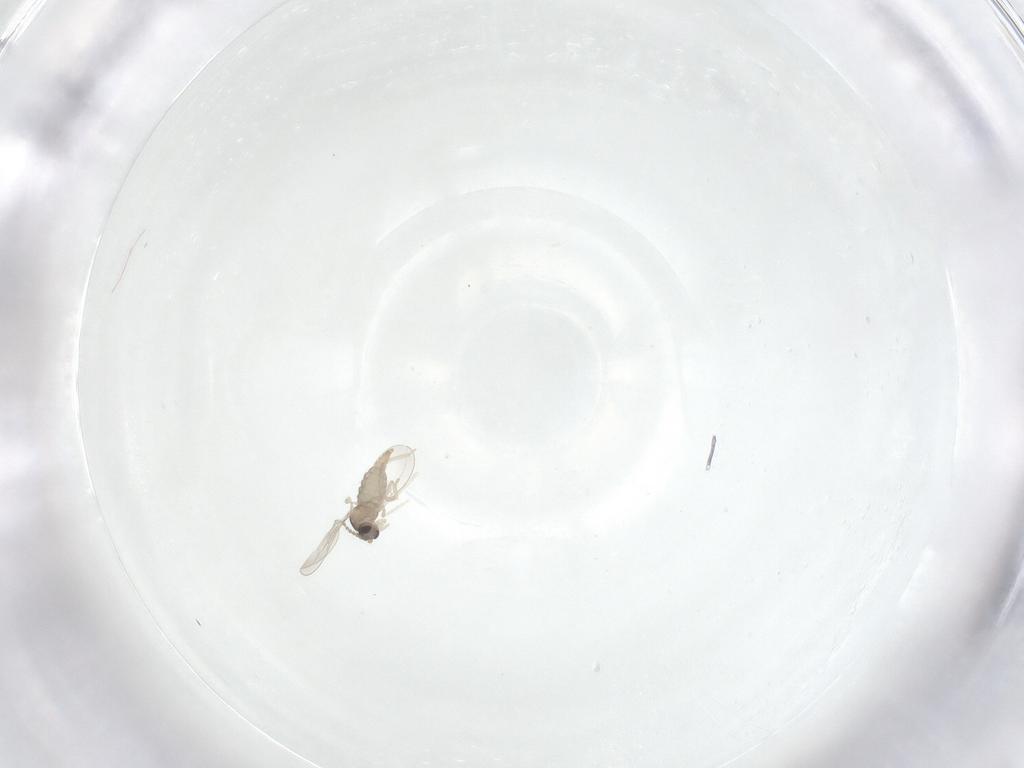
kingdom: Animalia
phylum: Arthropoda
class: Insecta
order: Diptera
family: Cecidomyiidae
